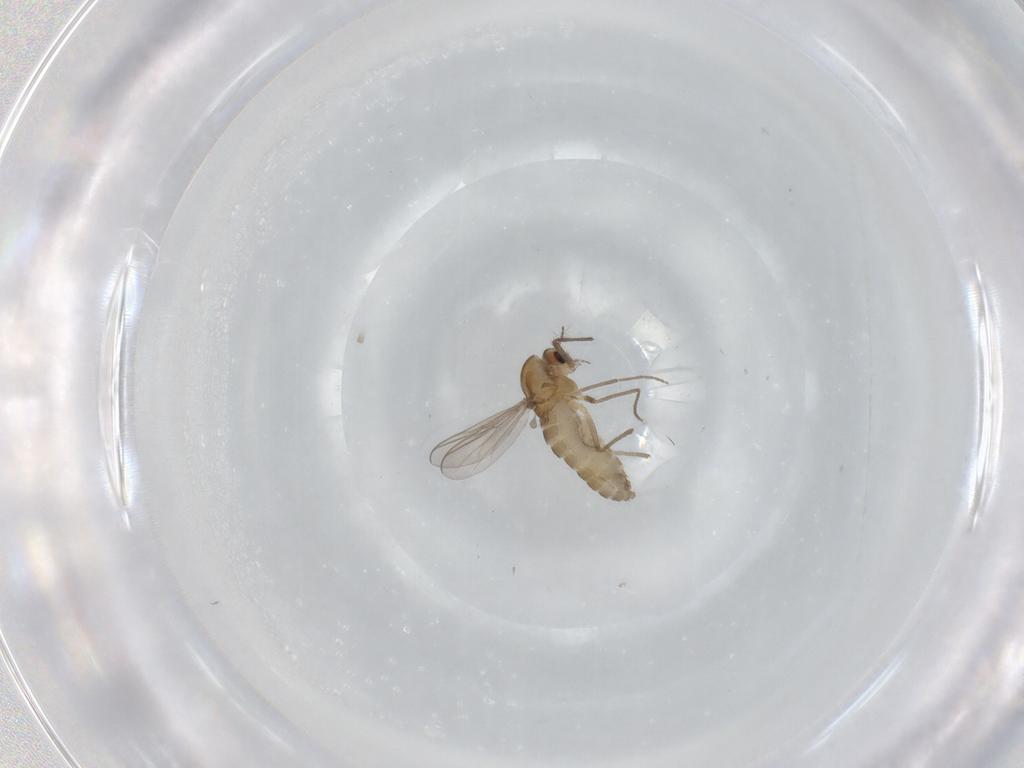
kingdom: Animalia
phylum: Arthropoda
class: Insecta
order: Diptera
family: Chironomidae
